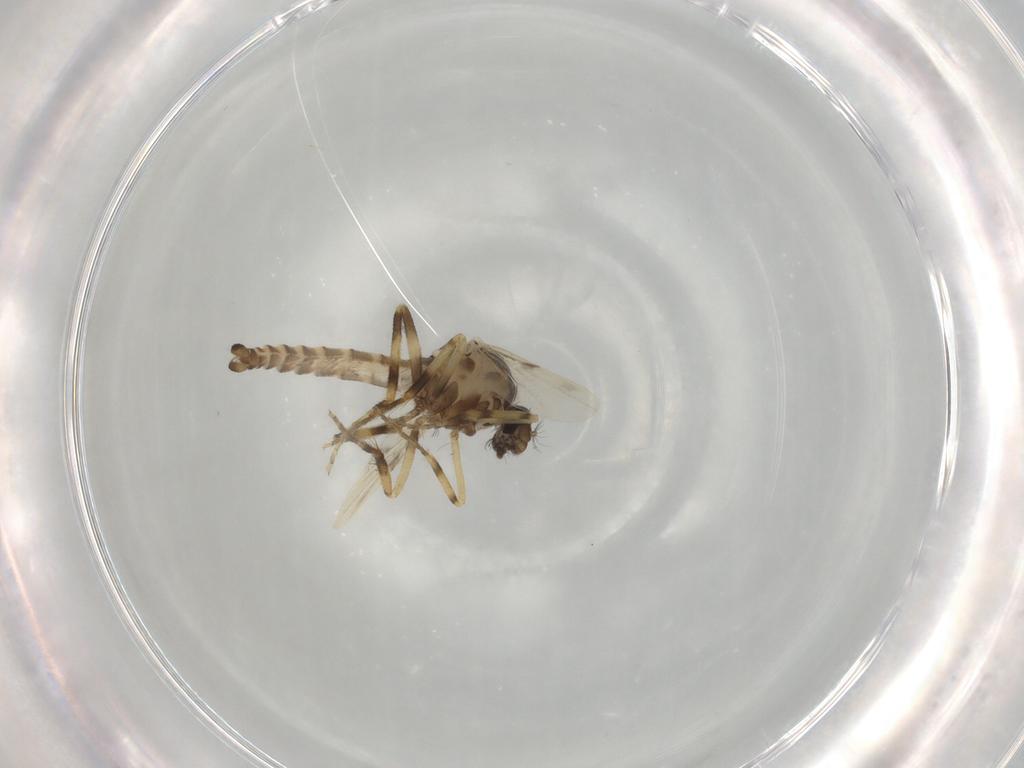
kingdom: Animalia
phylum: Arthropoda
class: Insecta
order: Diptera
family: Ceratopogonidae
